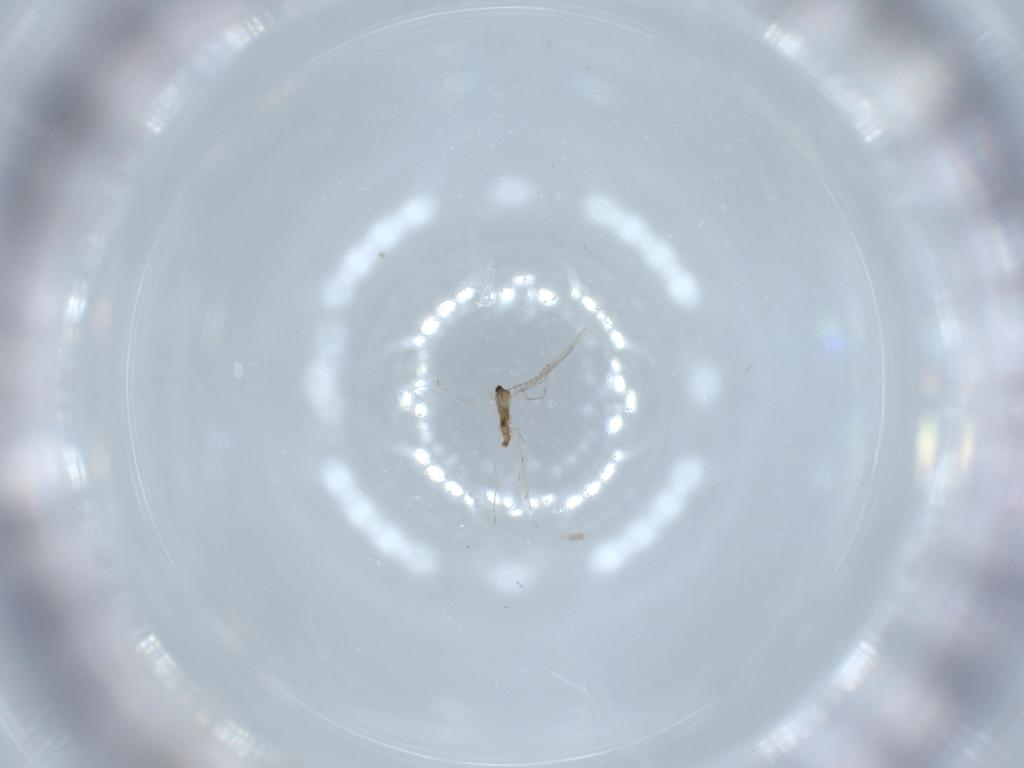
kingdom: Animalia
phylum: Arthropoda
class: Insecta
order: Diptera
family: Cecidomyiidae
